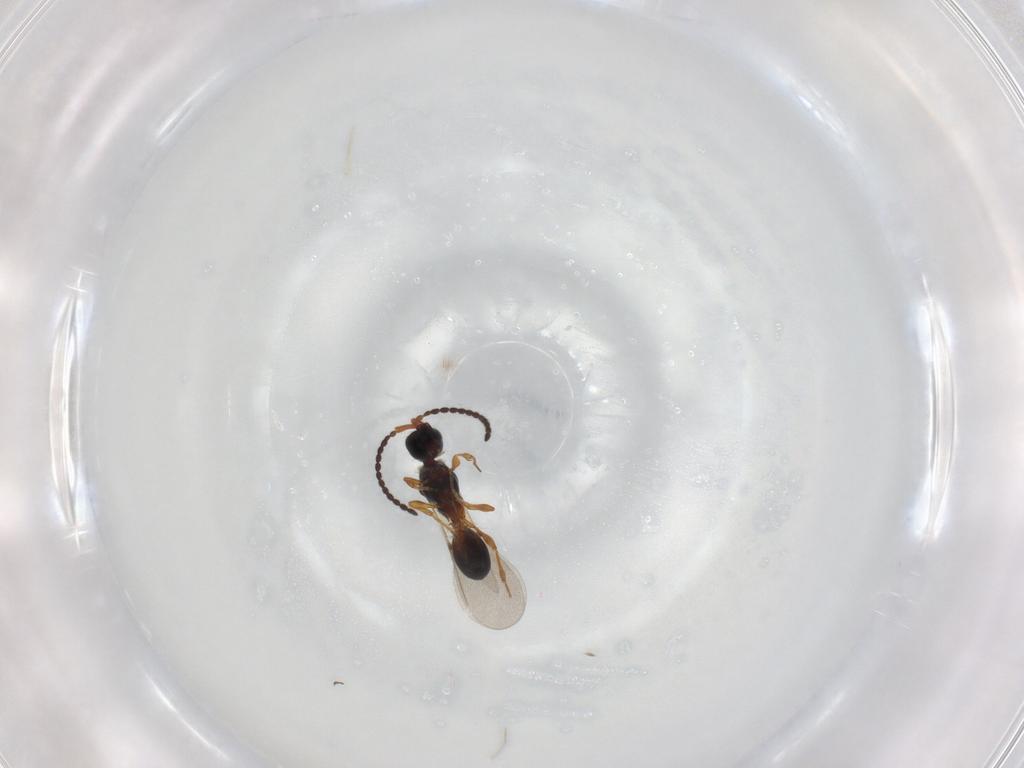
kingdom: Animalia
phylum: Arthropoda
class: Insecta
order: Hymenoptera
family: Diapriidae
